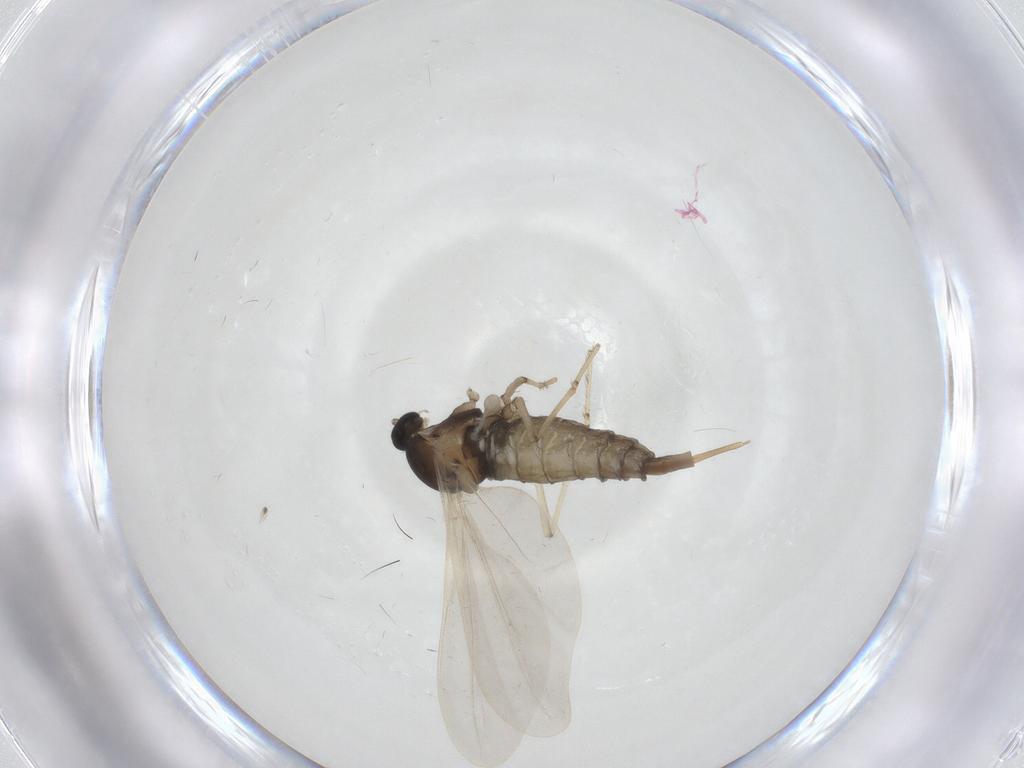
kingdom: Animalia
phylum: Arthropoda
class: Insecta
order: Diptera
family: Cecidomyiidae
